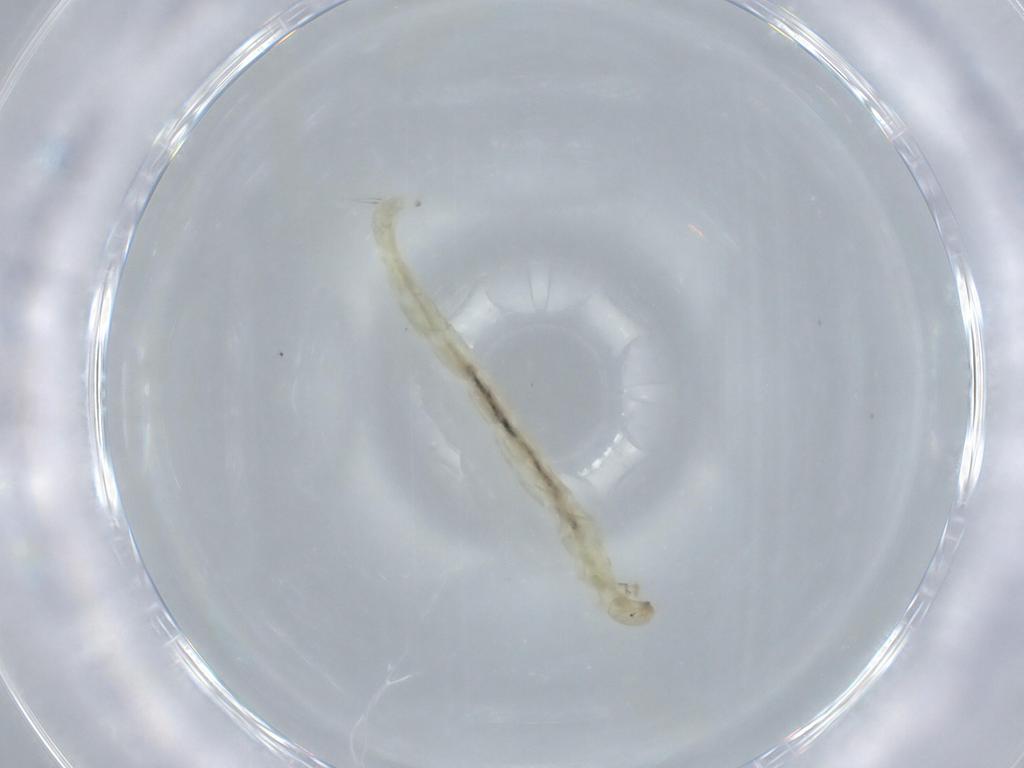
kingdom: Animalia
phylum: Arthropoda
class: Insecta
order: Diptera
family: Chironomidae
